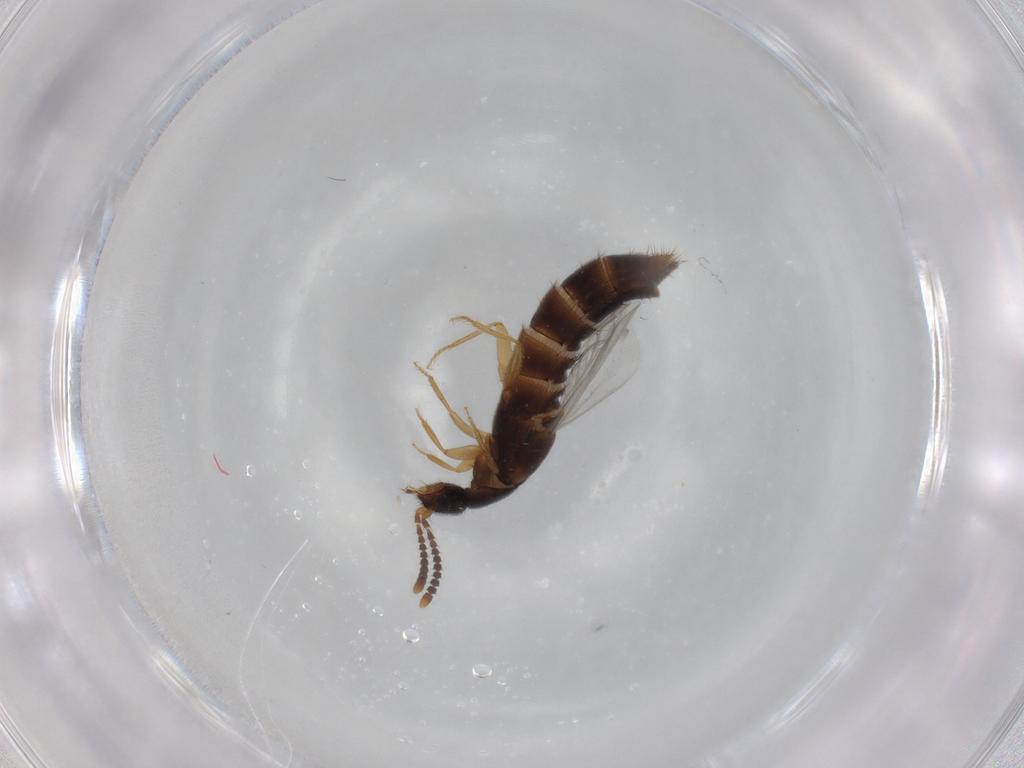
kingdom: Animalia
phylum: Arthropoda
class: Insecta
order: Coleoptera
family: Staphylinidae
